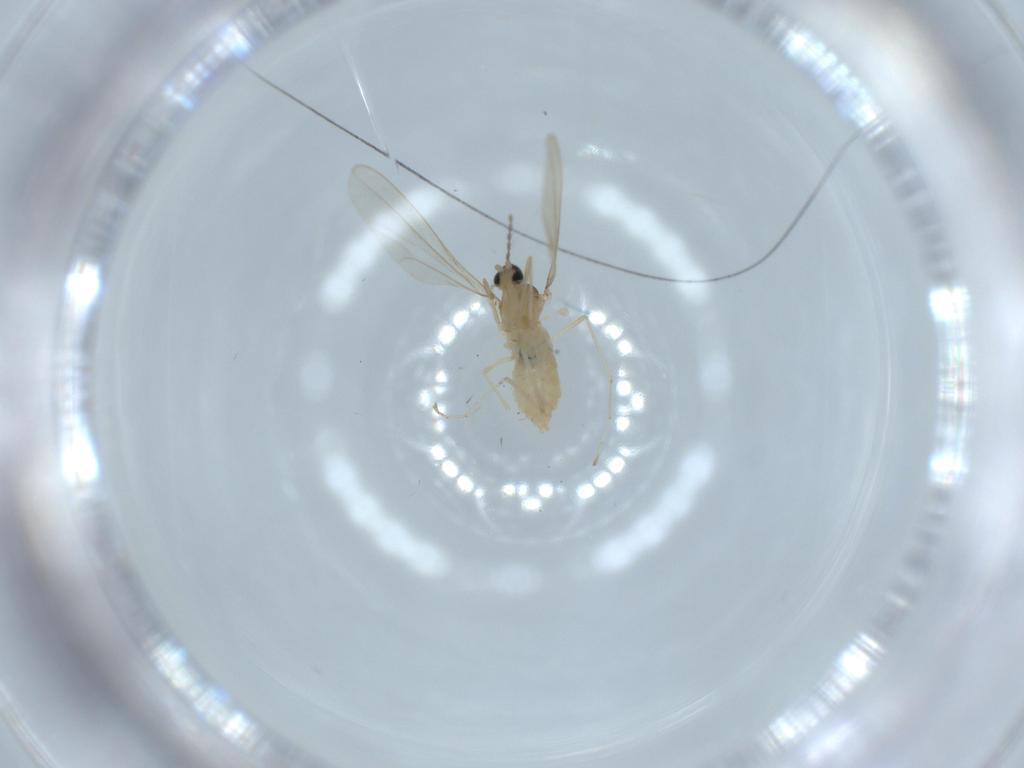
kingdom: Animalia
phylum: Arthropoda
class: Insecta
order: Diptera
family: Cecidomyiidae
